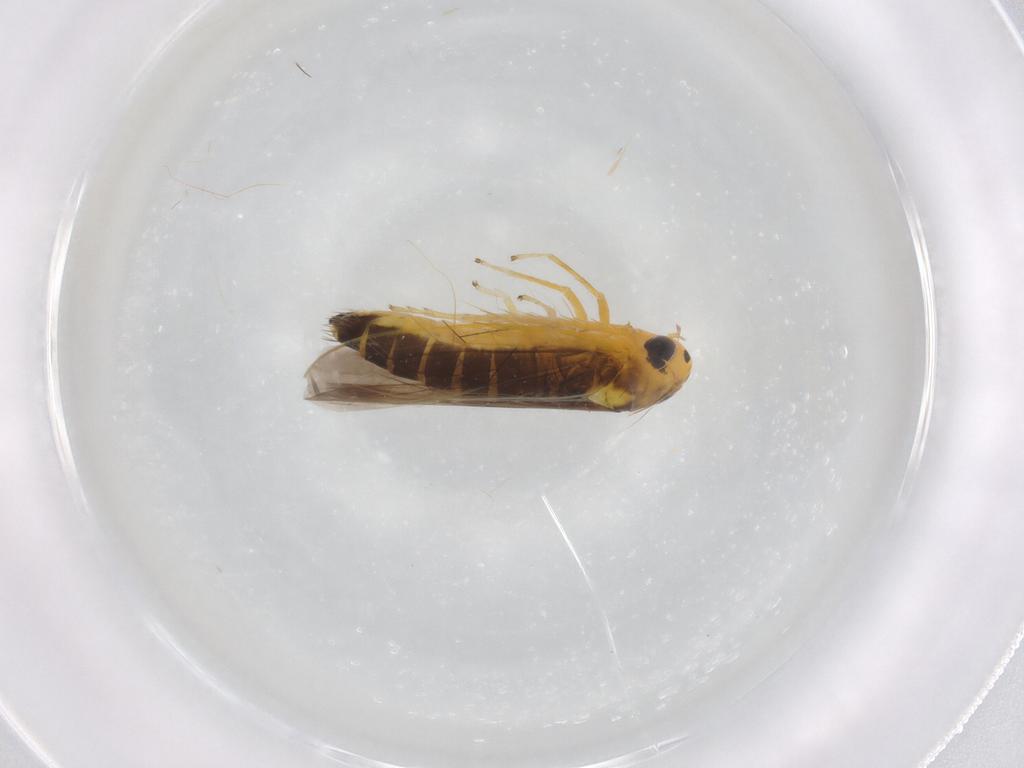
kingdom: Animalia
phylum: Arthropoda
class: Insecta
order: Hemiptera
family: Cicadellidae
